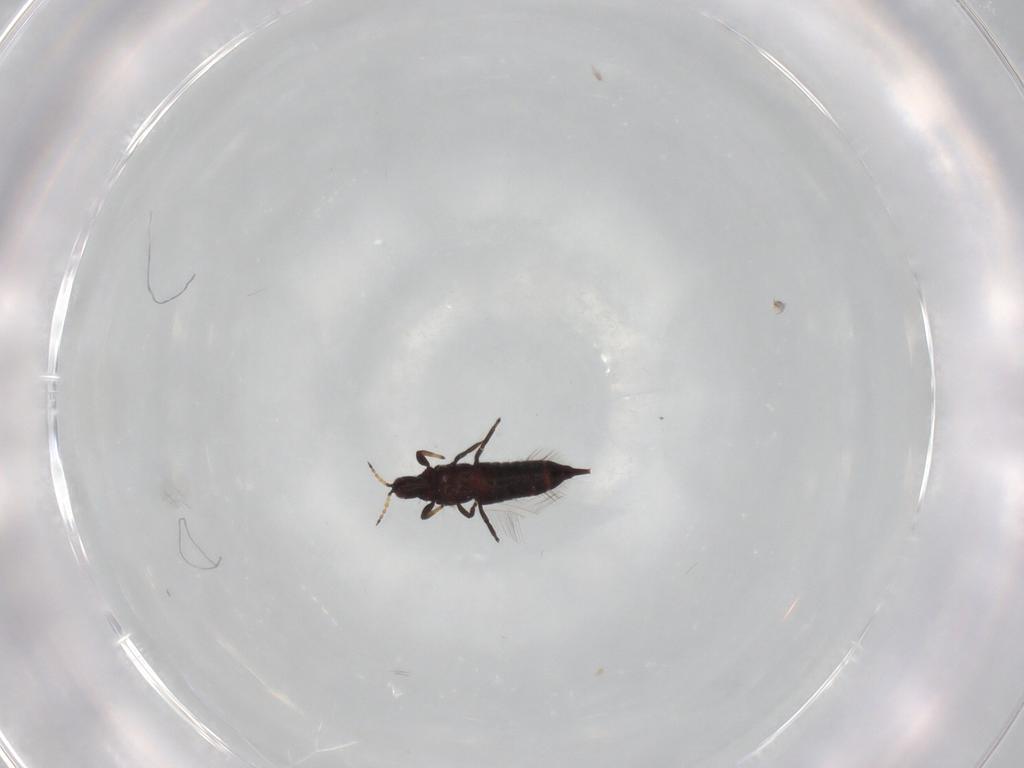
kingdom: Animalia
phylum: Arthropoda
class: Insecta
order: Thysanoptera
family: Phlaeothripidae
